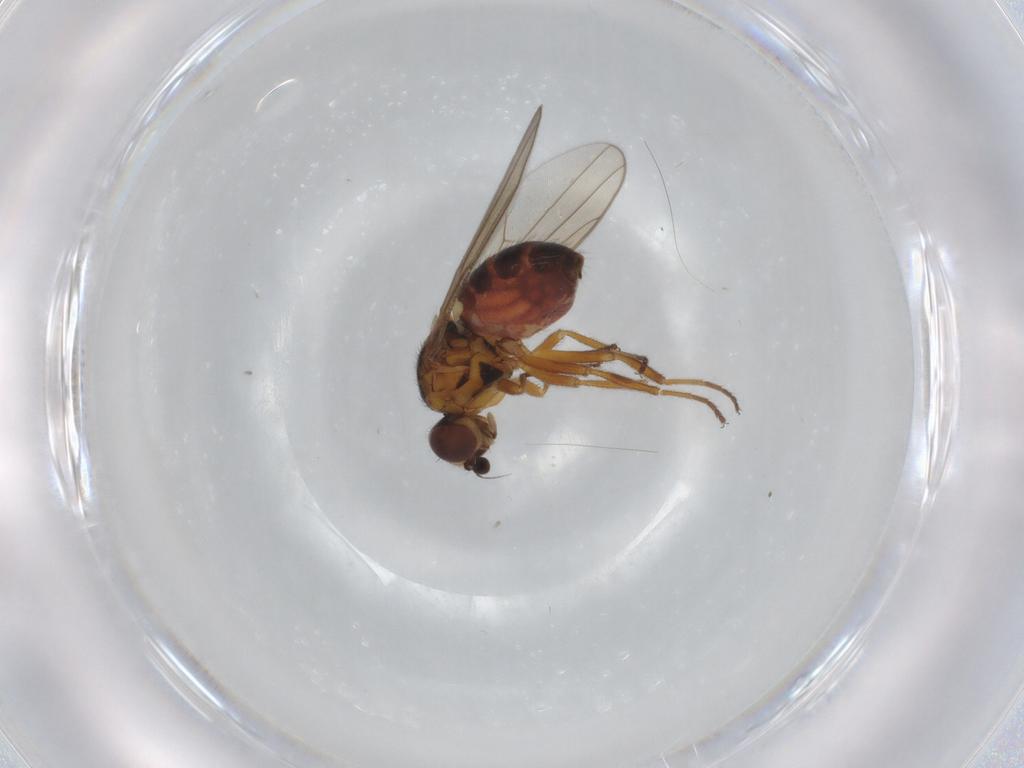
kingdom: Animalia
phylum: Arthropoda
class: Insecta
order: Diptera
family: Chloropidae
